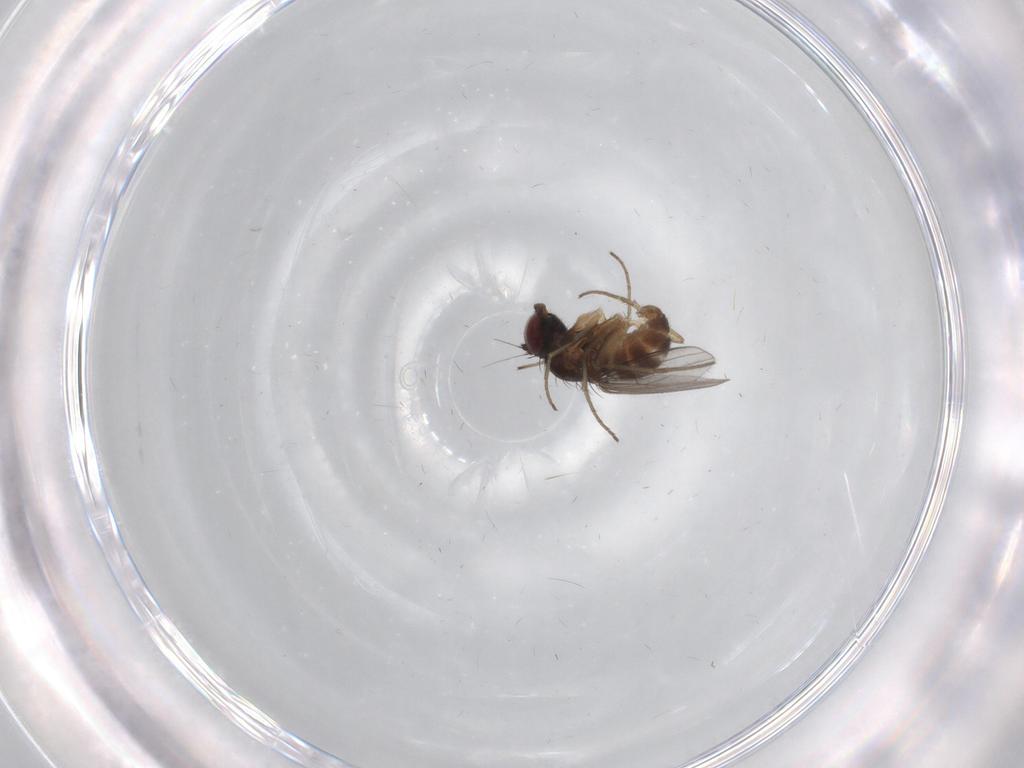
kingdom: Animalia
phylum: Arthropoda
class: Insecta
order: Diptera
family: Dolichopodidae
